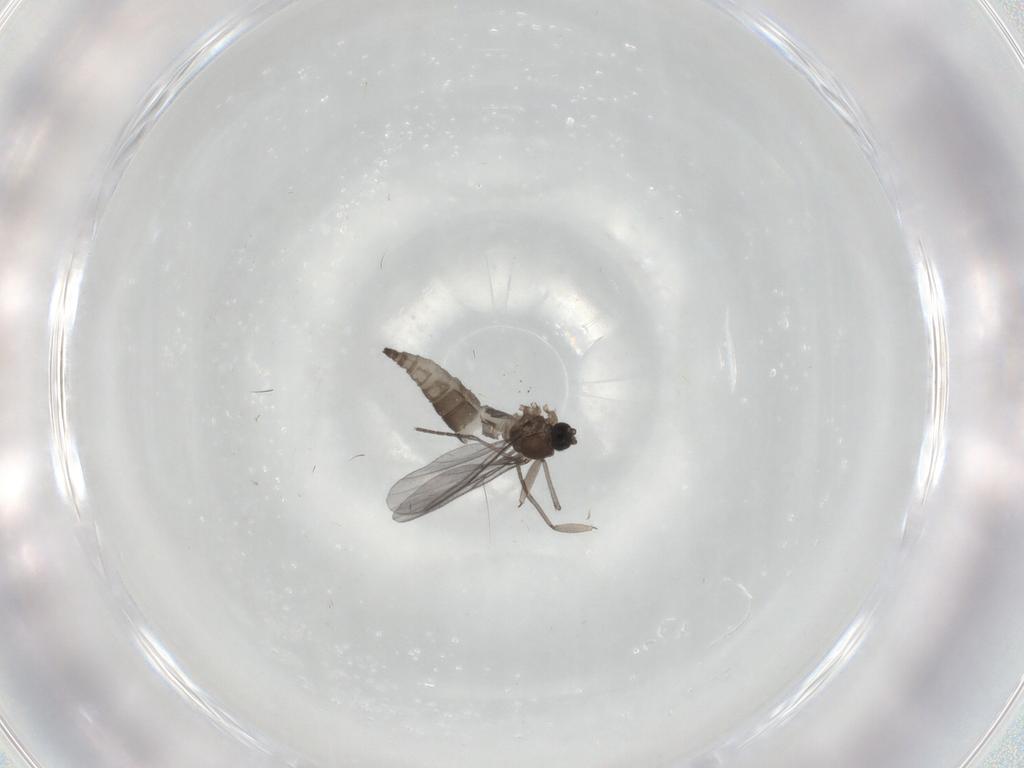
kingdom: Animalia
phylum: Arthropoda
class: Insecta
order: Diptera
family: Sciaridae
